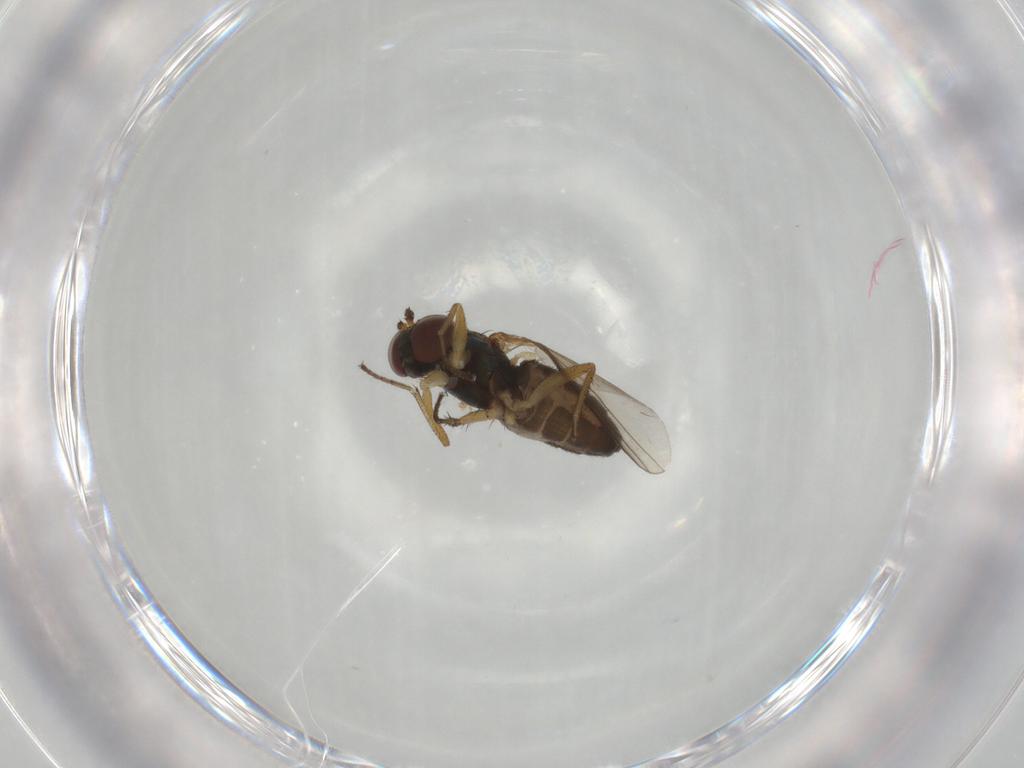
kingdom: Animalia
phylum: Arthropoda
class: Insecta
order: Diptera
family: Dolichopodidae
